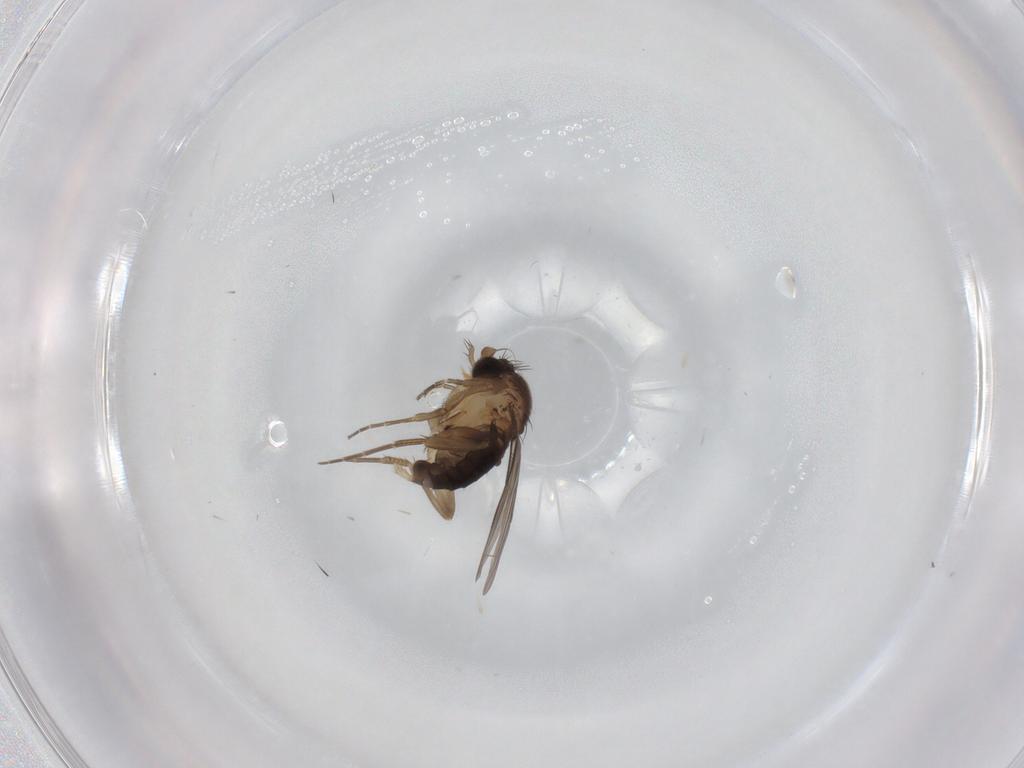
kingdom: Animalia
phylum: Arthropoda
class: Insecta
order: Diptera
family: Phoridae
